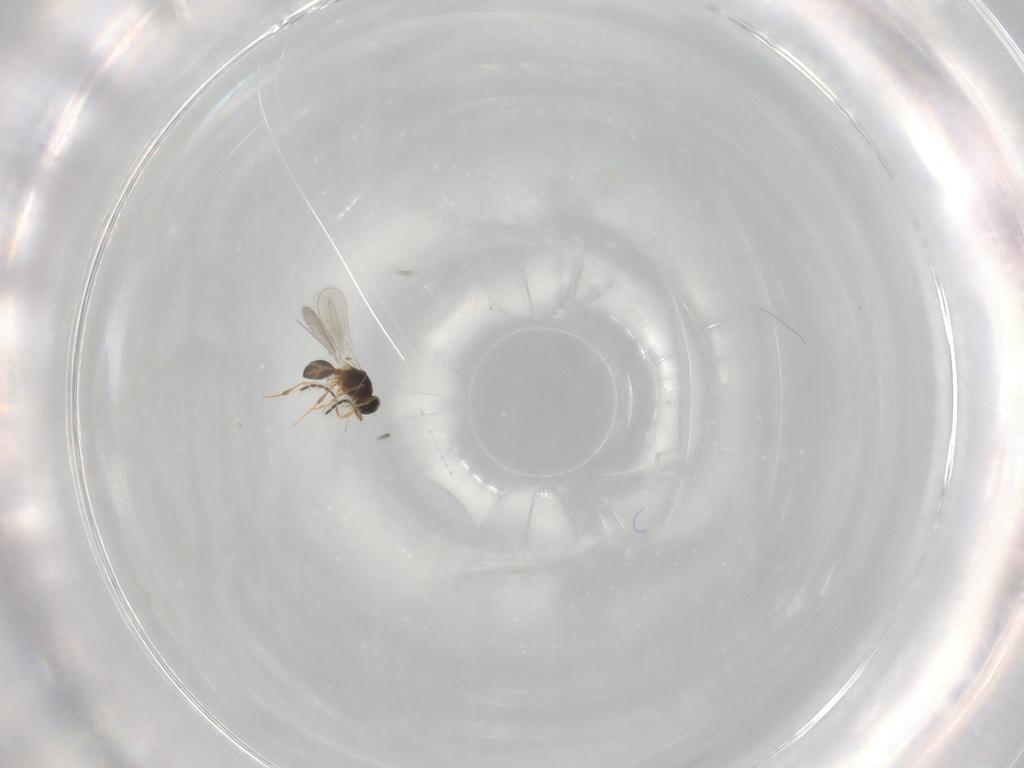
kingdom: Animalia
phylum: Arthropoda
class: Insecta
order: Hymenoptera
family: Platygastridae
